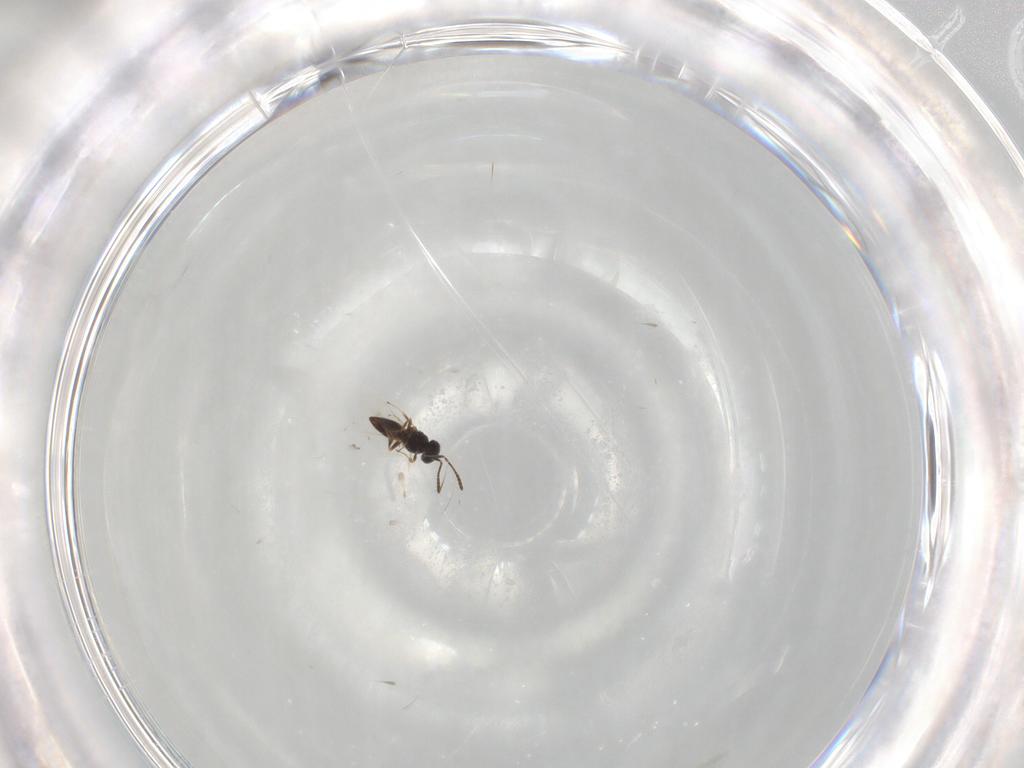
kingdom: Animalia
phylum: Arthropoda
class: Insecta
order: Hymenoptera
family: Scelionidae
